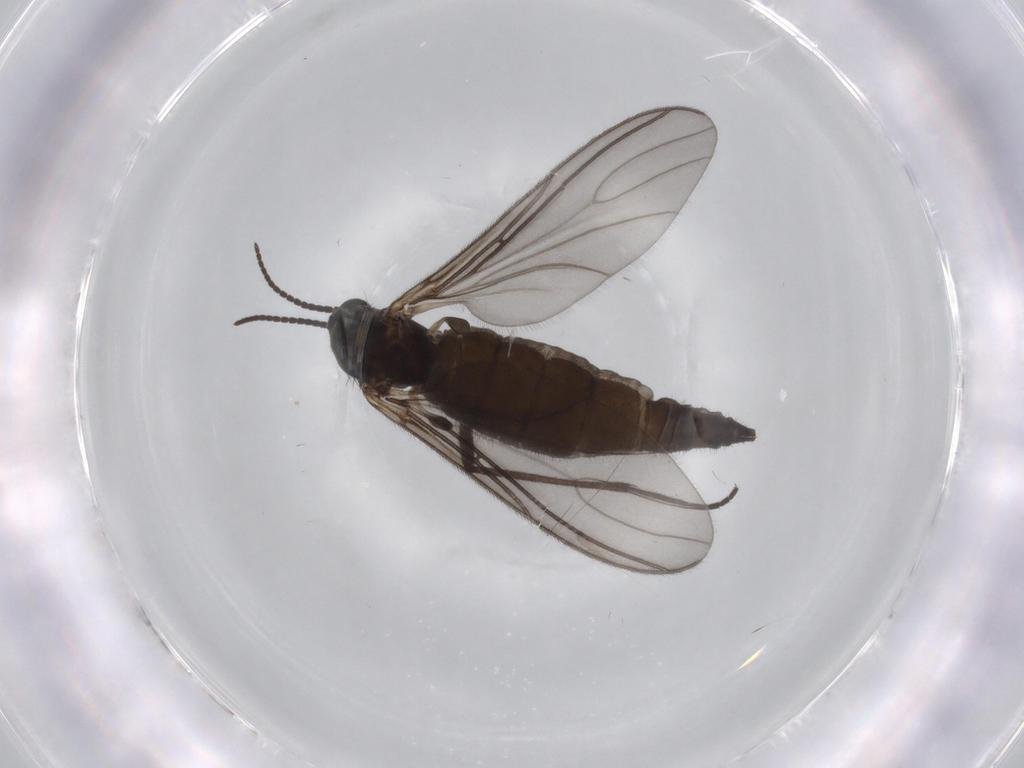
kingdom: Animalia
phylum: Arthropoda
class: Insecta
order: Diptera
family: Sciaridae
